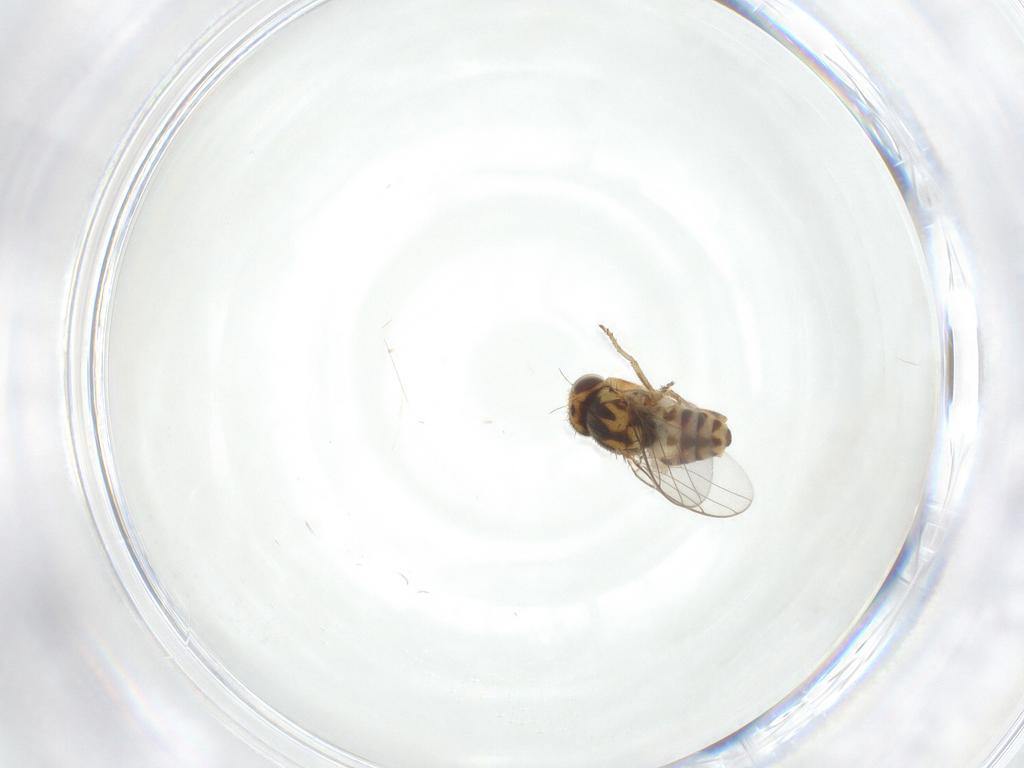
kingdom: Animalia
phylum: Arthropoda
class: Insecta
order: Diptera
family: Chloropidae
